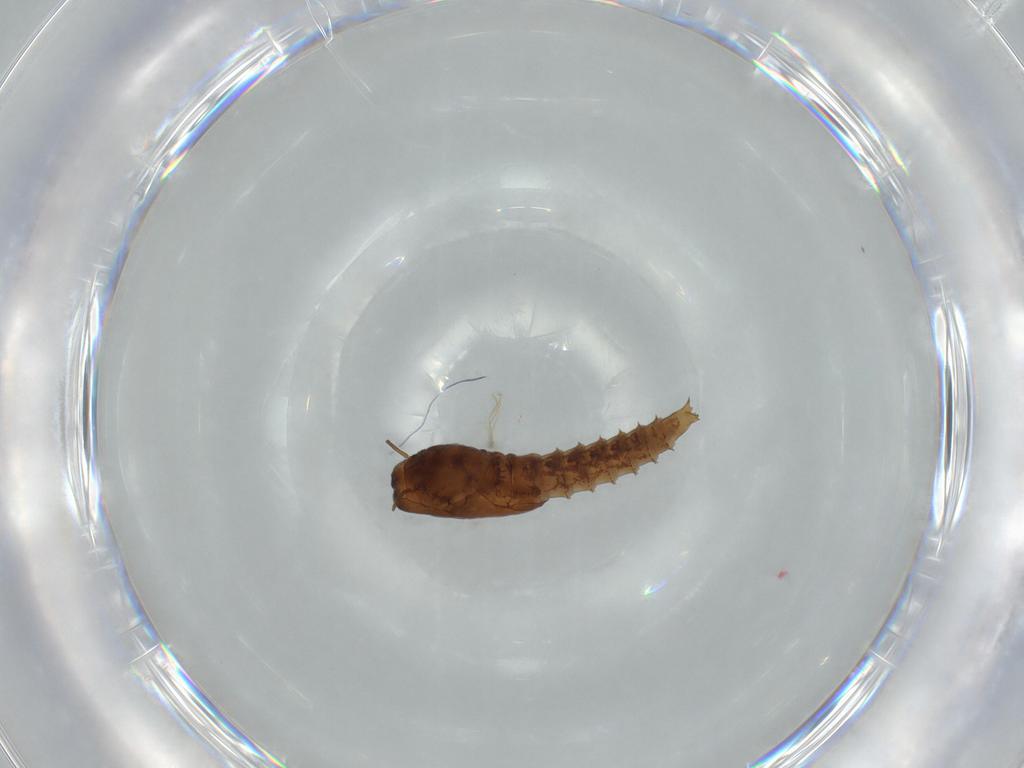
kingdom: Animalia
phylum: Arthropoda
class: Insecta
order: Diptera
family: Ceratopogonidae
